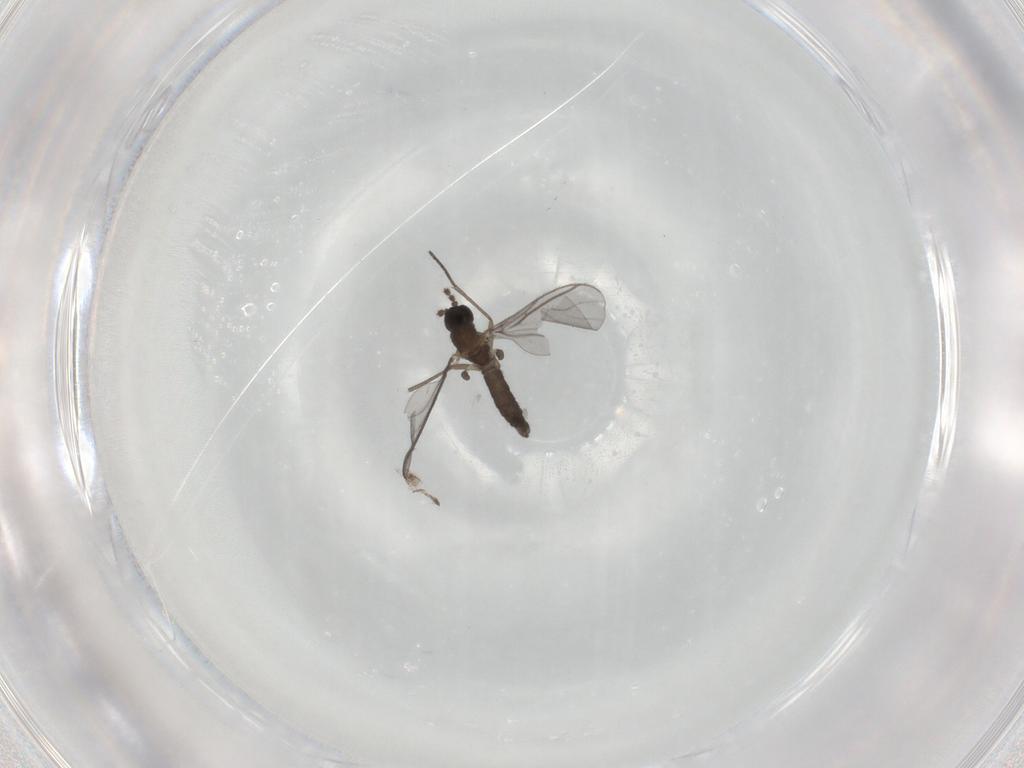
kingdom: Animalia
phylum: Arthropoda
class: Insecta
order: Diptera
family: Sciaridae
